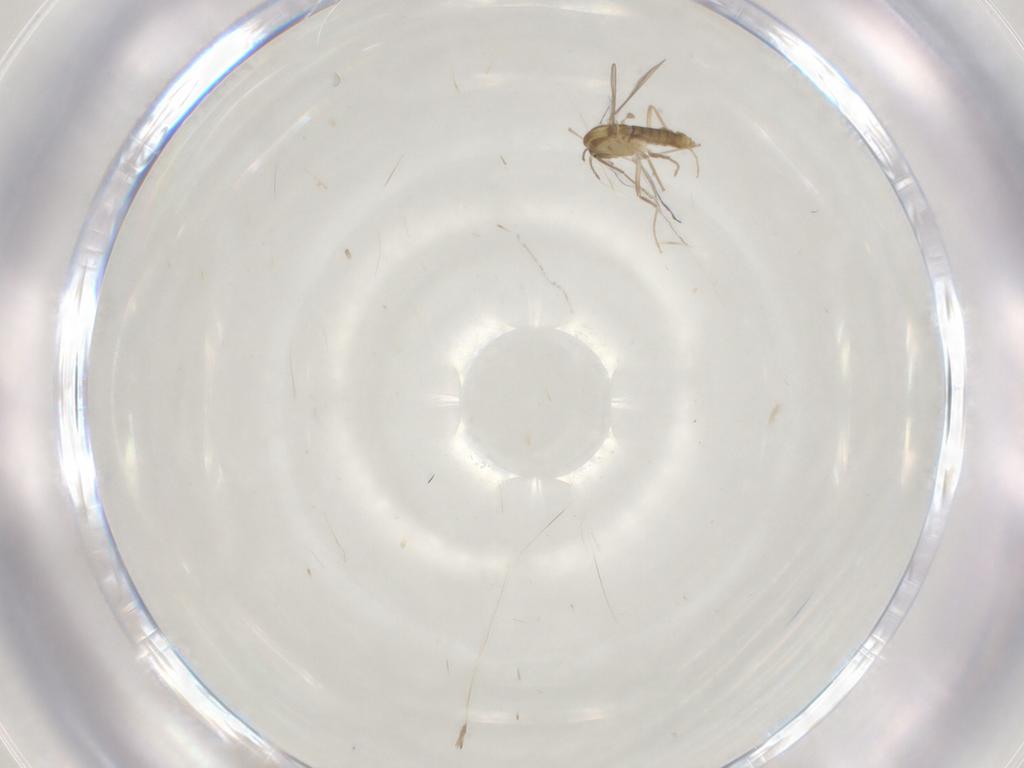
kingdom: Animalia
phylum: Arthropoda
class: Insecta
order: Diptera
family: Cecidomyiidae
